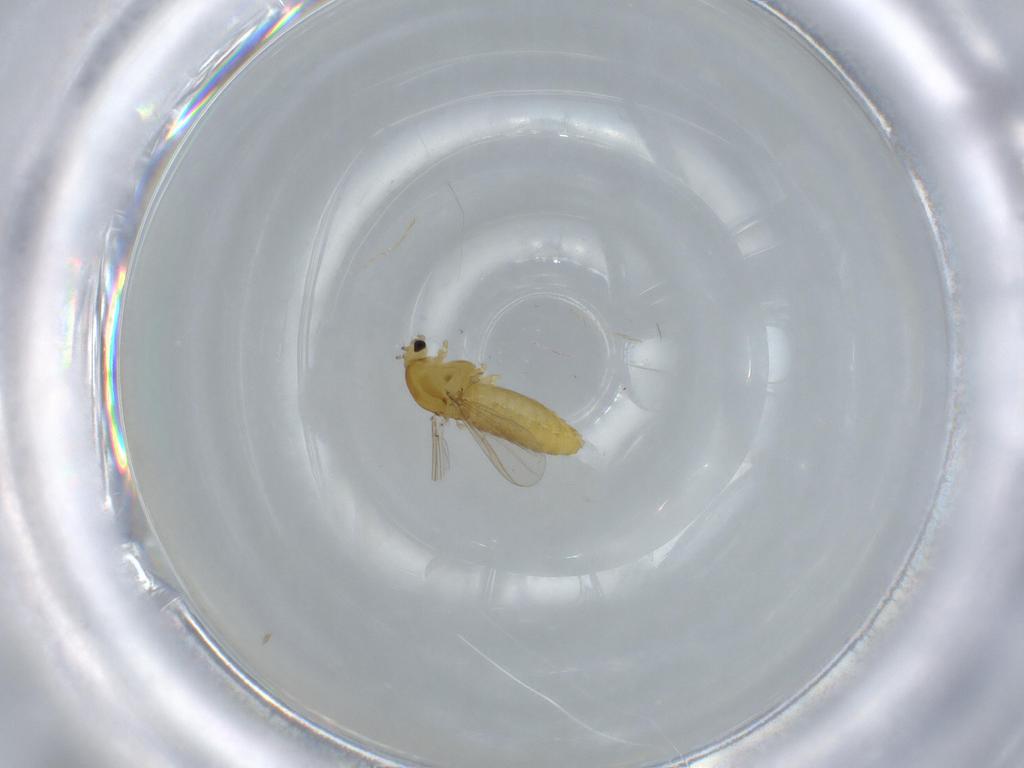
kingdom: Animalia
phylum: Arthropoda
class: Insecta
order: Diptera
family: Chironomidae
